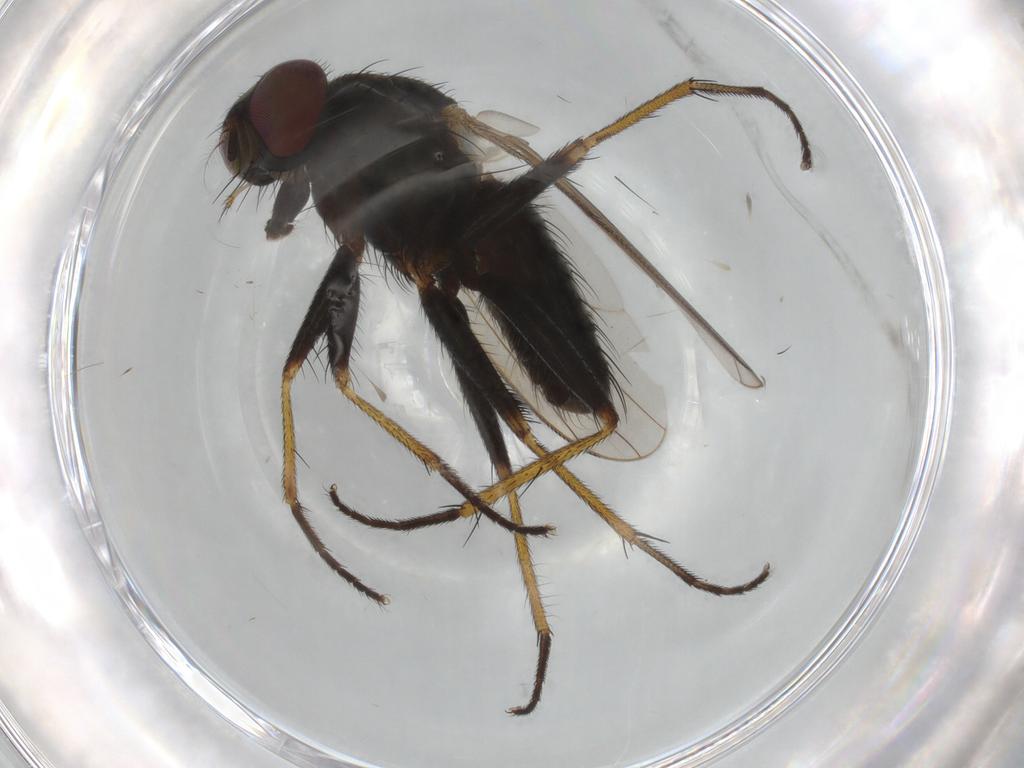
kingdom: Animalia
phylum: Arthropoda
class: Insecta
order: Diptera
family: Muscidae
